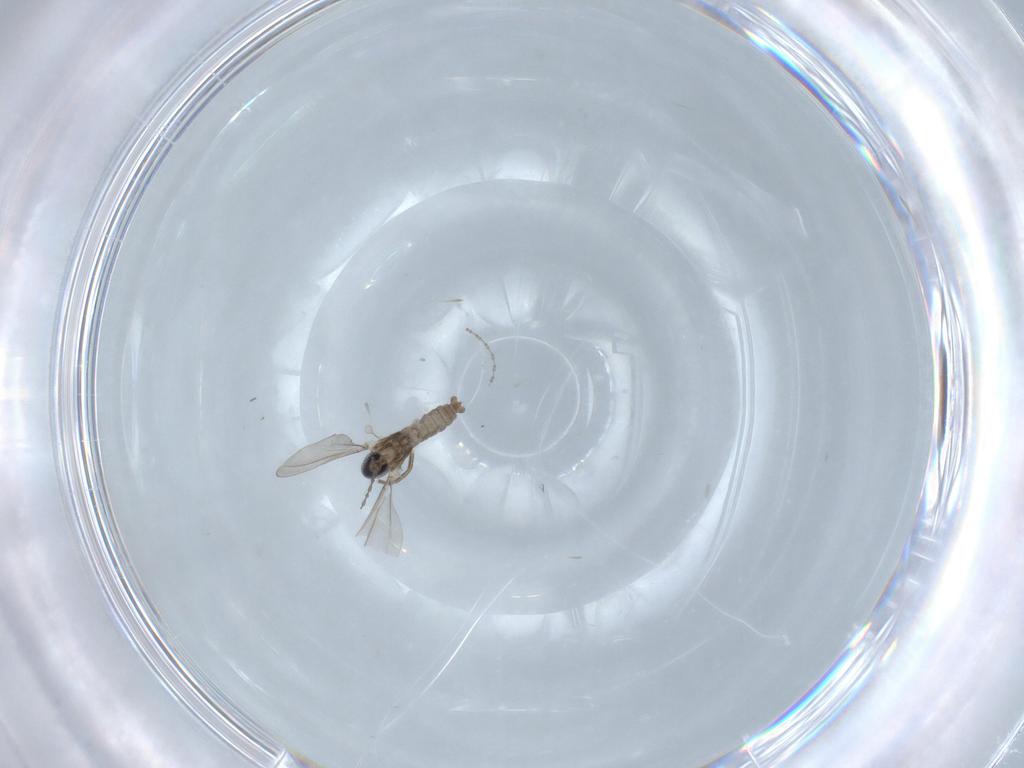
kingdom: Animalia
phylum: Arthropoda
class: Insecta
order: Diptera
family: Cecidomyiidae
